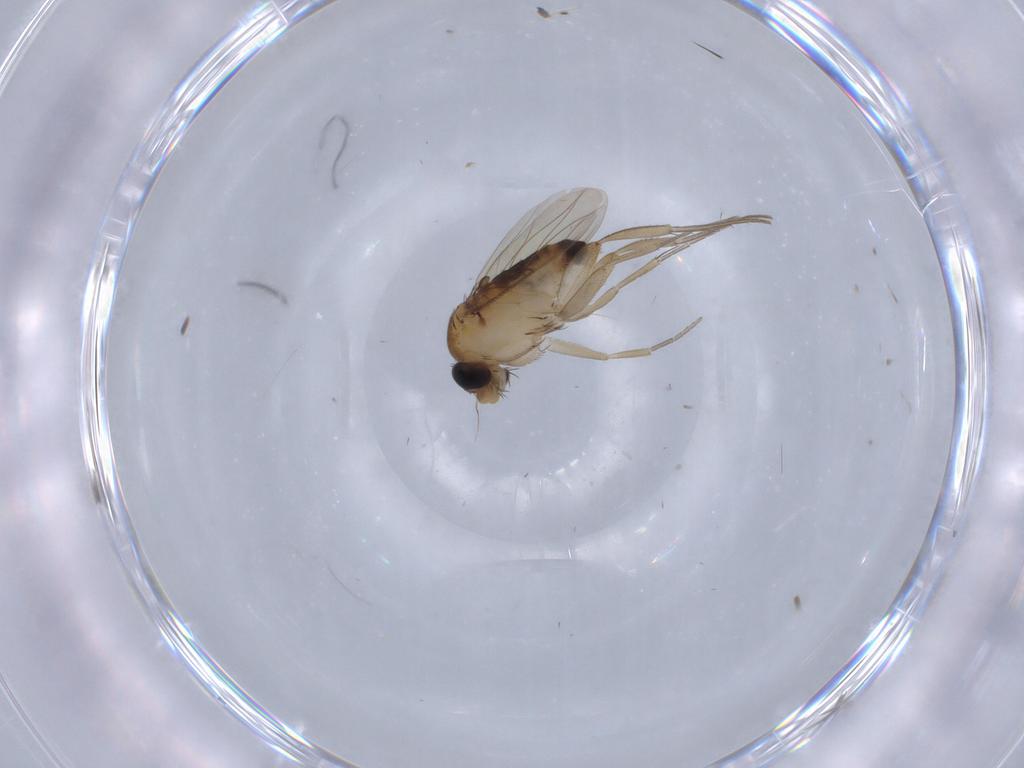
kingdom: Animalia
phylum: Arthropoda
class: Insecta
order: Diptera
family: Phoridae
